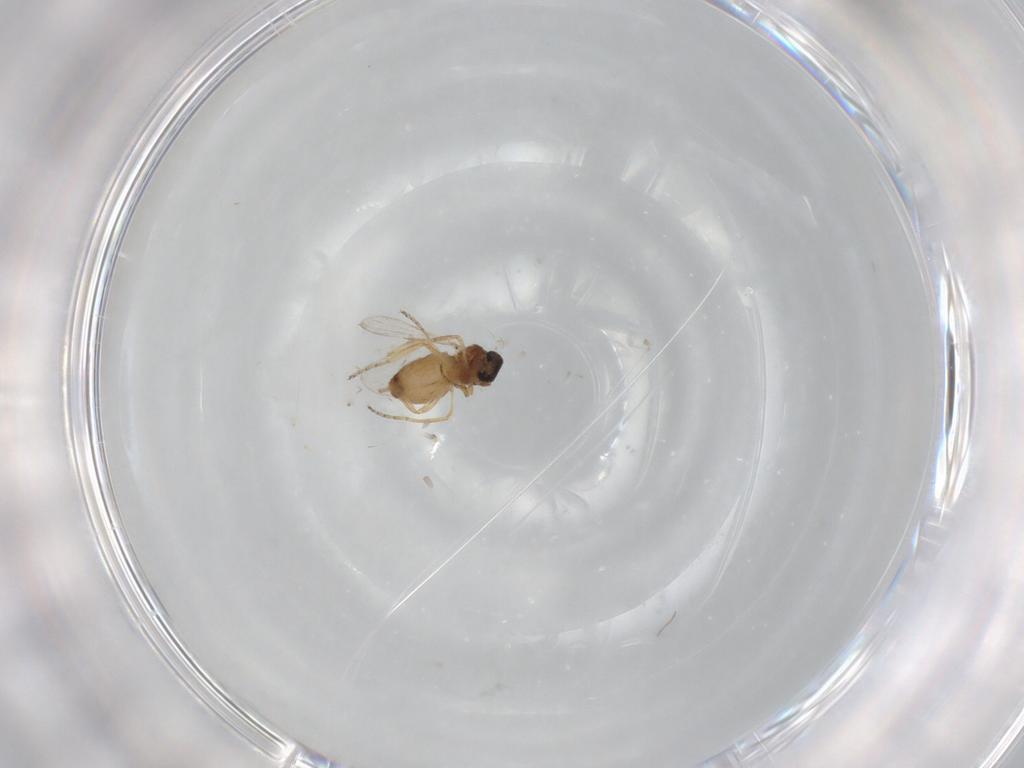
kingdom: Animalia
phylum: Arthropoda
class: Insecta
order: Diptera
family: Ceratopogonidae
